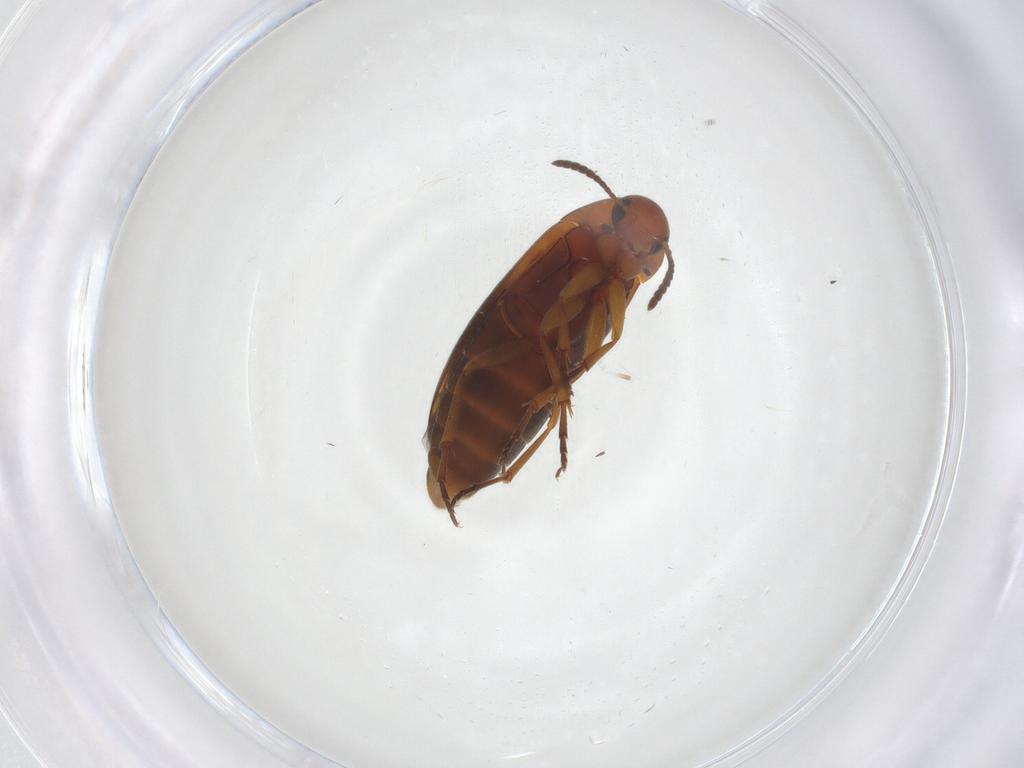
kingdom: Animalia
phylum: Arthropoda
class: Insecta
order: Coleoptera
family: Scraptiidae
